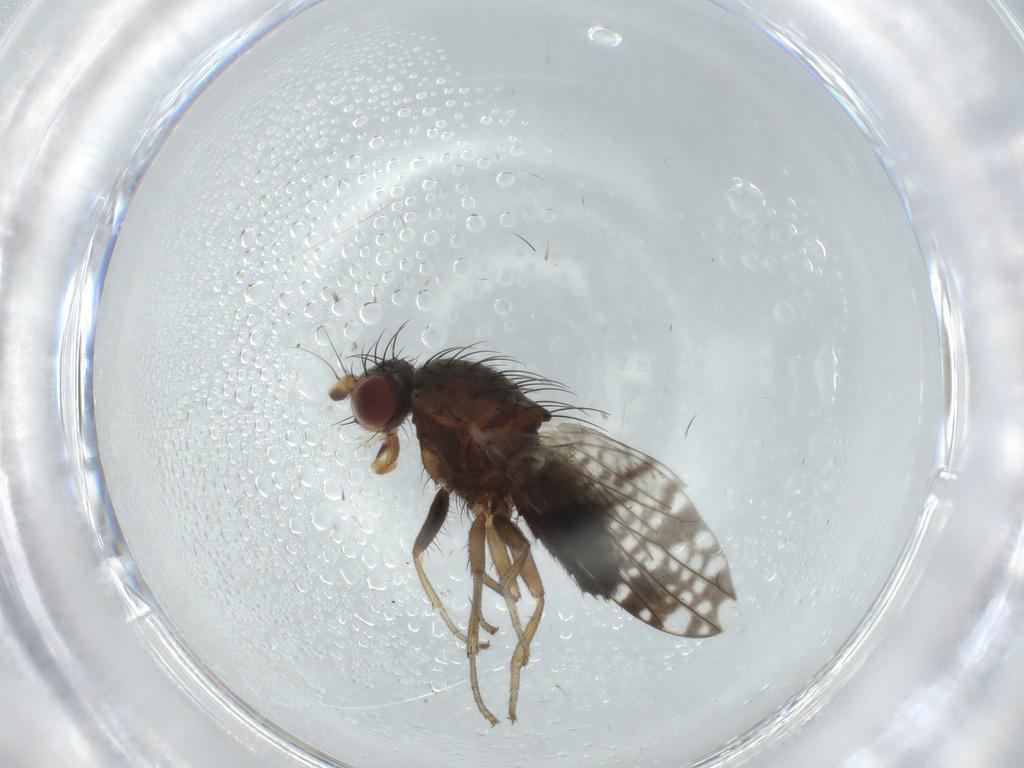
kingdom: Animalia
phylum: Arthropoda
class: Insecta
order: Diptera
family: Tephritidae
